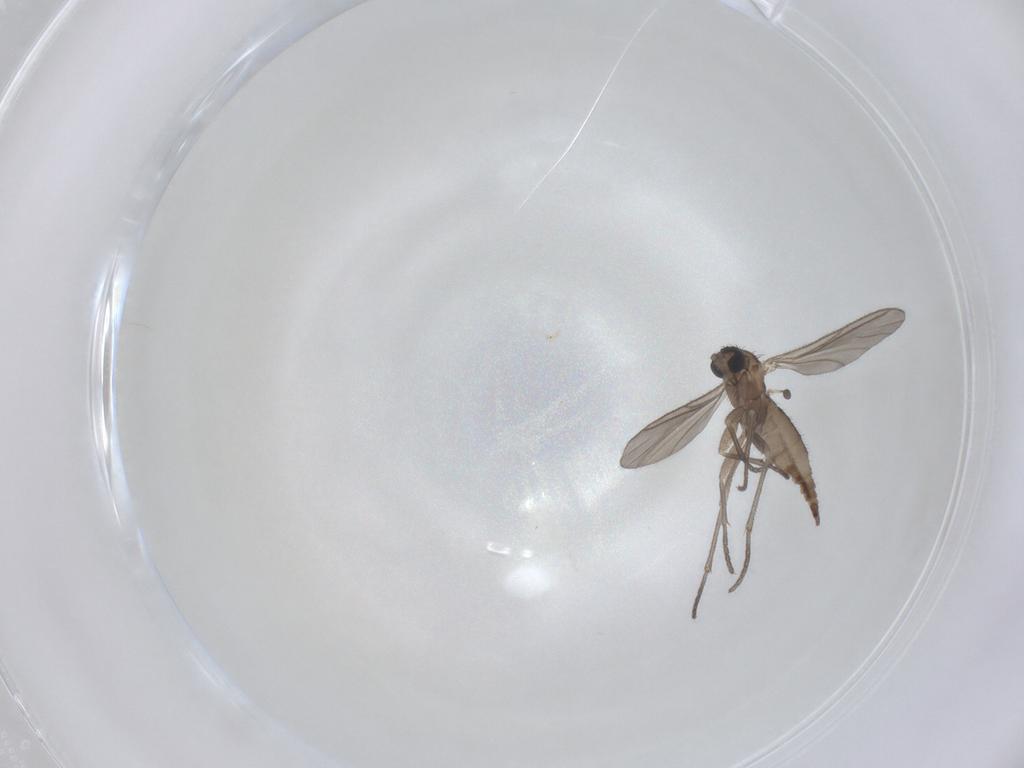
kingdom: Animalia
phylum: Arthropoda
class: Insecta
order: Diptera
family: Sciaridae
